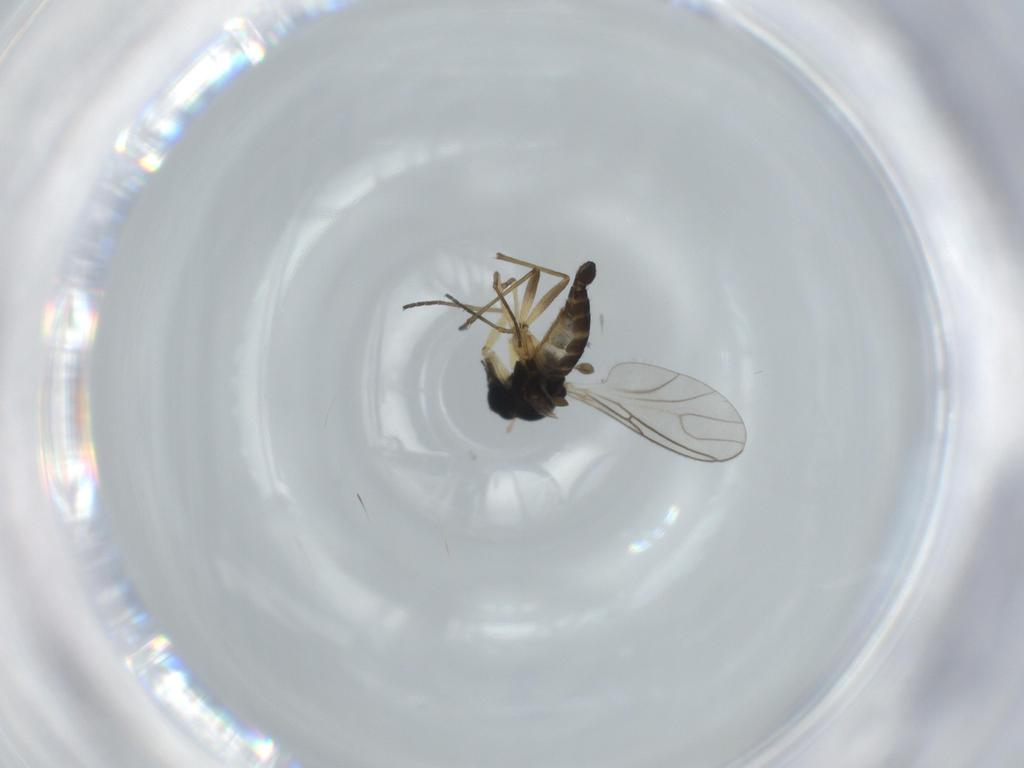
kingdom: Animalia
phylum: Arthropoda
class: Insecta
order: Diptera
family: Sciaridae
